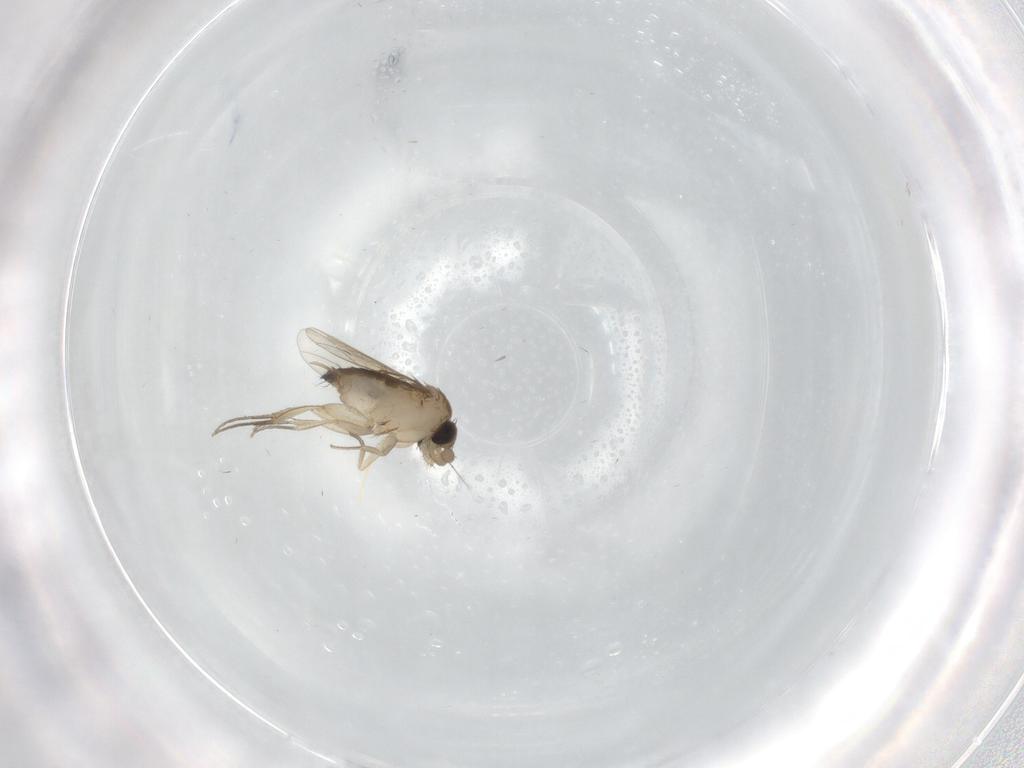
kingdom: Animalia
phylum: Arthropoda
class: Insecta
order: Diptera
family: Phoridae
